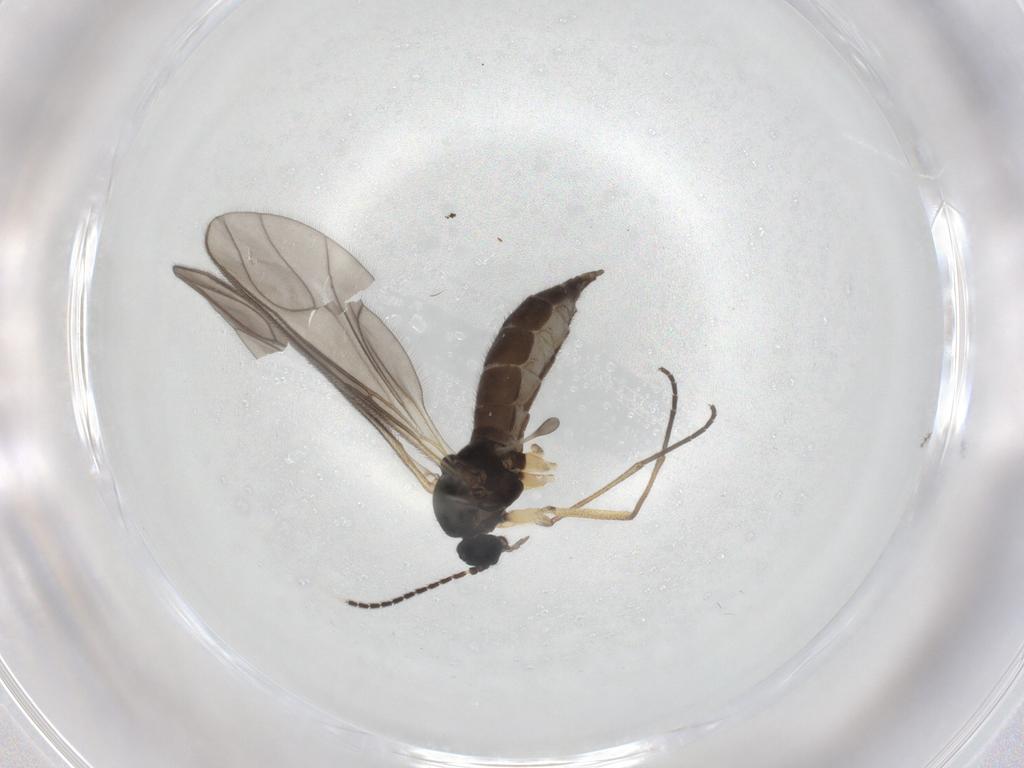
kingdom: Animalia
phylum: Arthropoda
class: Insecta
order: Diptera
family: Sciaridae
